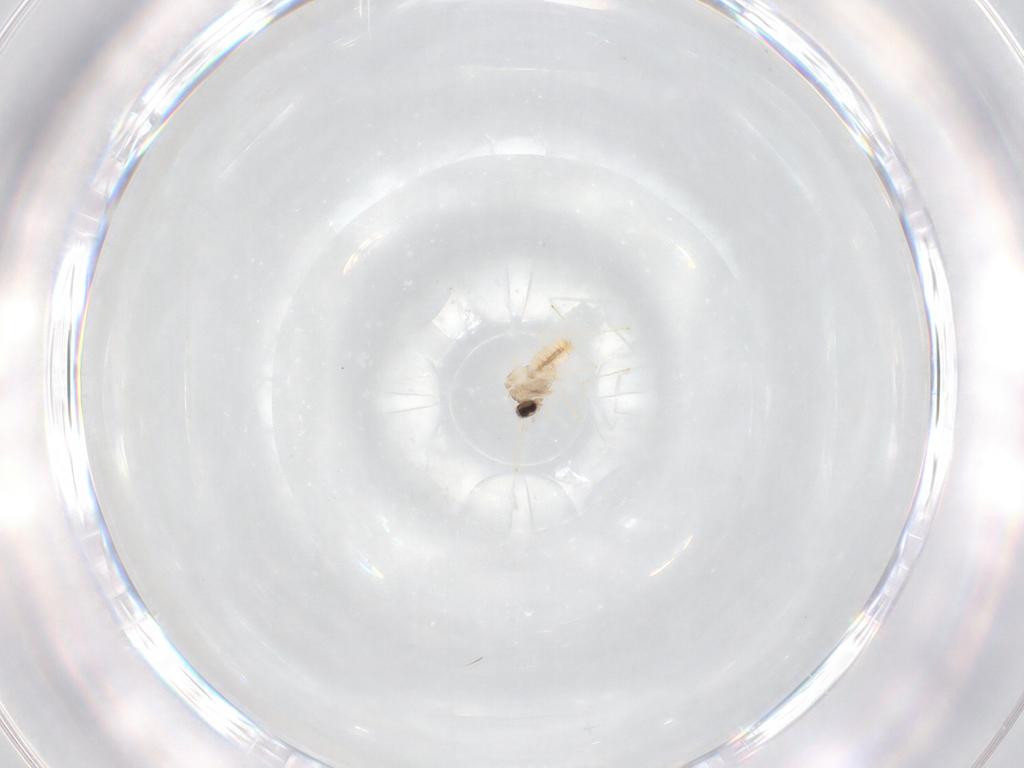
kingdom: Animalia
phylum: Arthropoda
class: Insecta
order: Diptera
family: Cecidomyiidae
